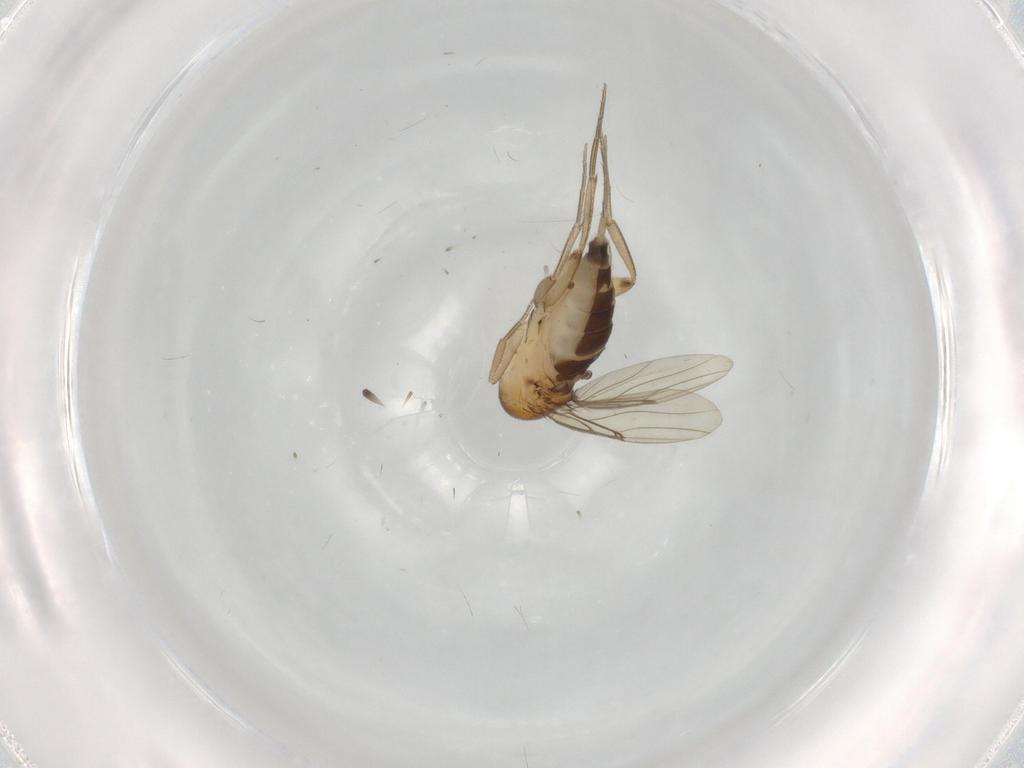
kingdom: Animalia
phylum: Arthropoda
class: Insecta
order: Diptera
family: Phoridae
